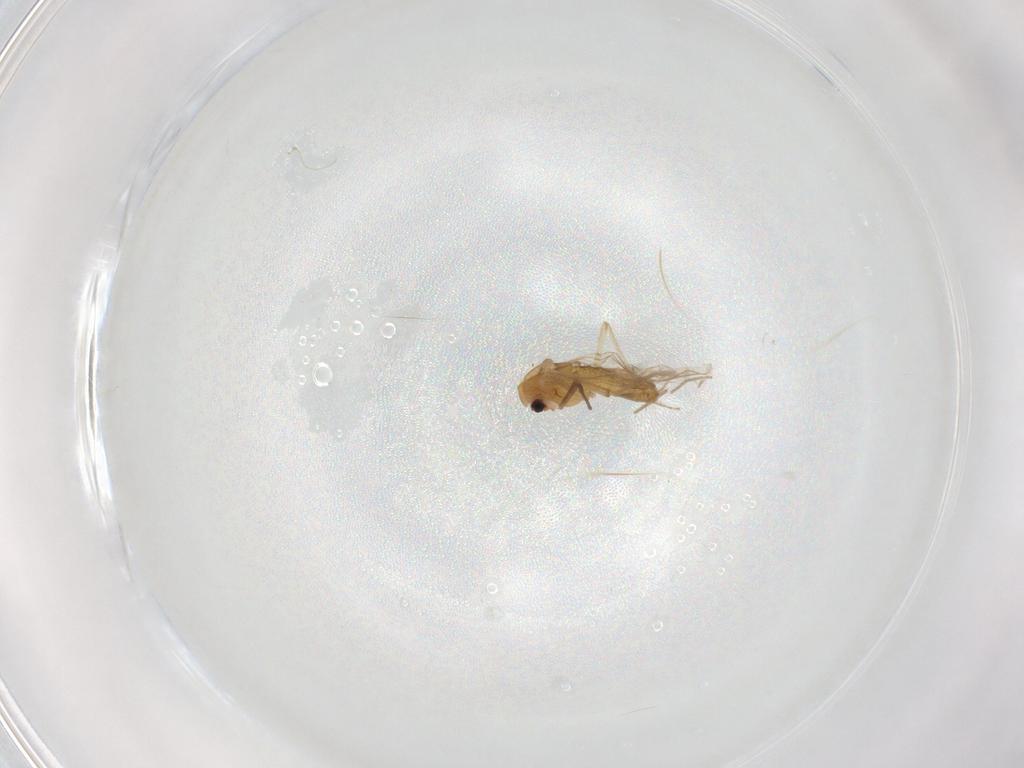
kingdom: Animalia
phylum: Arthropoda
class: Insecta
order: Diptera
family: Chironomidae
